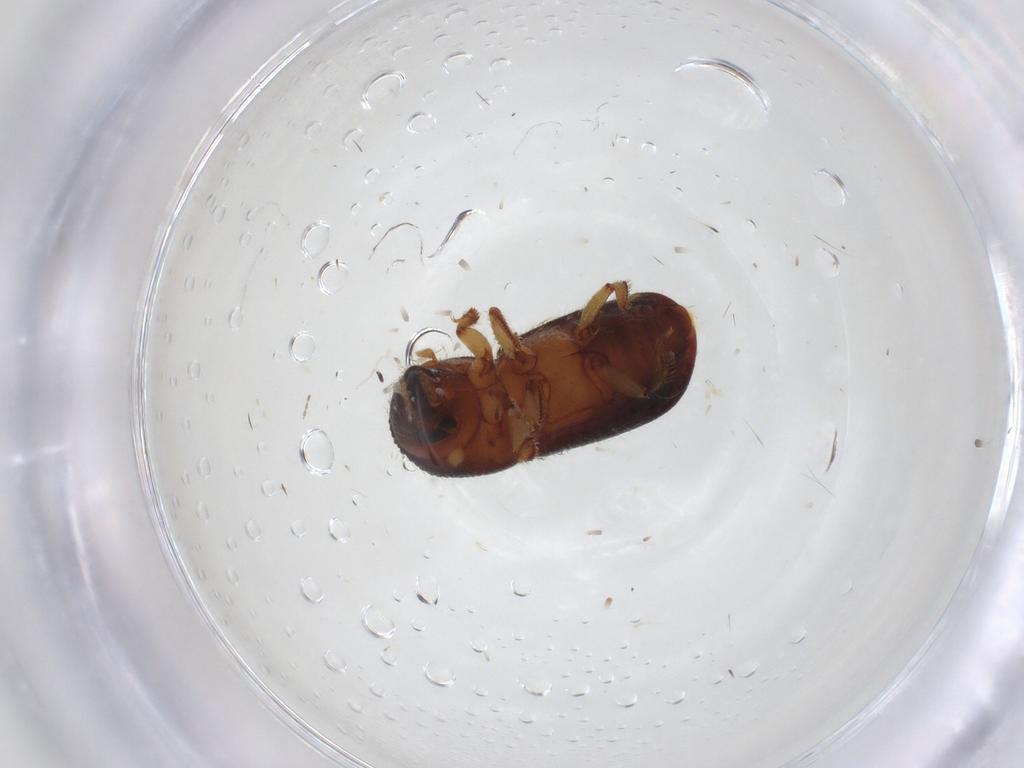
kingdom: Animalia
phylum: Arthropoda
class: Insecta
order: Coleoptera
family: Curculionidae
